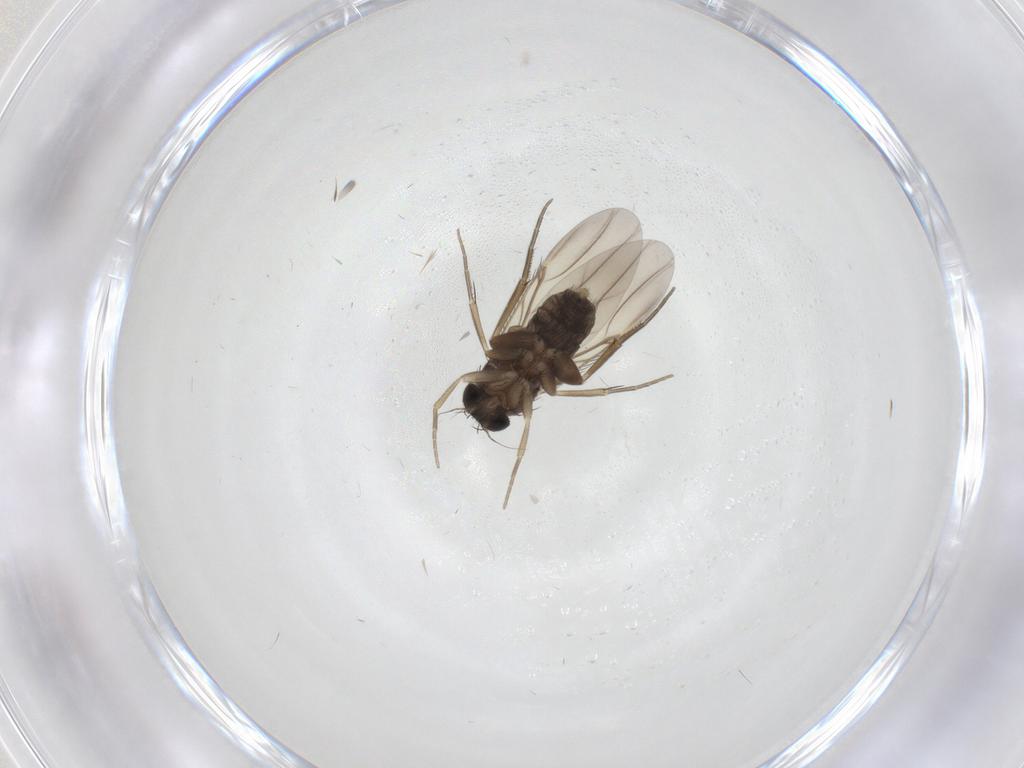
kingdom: Animalia
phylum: Arthropoda
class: Insecta
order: Diptera
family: Phoridae
